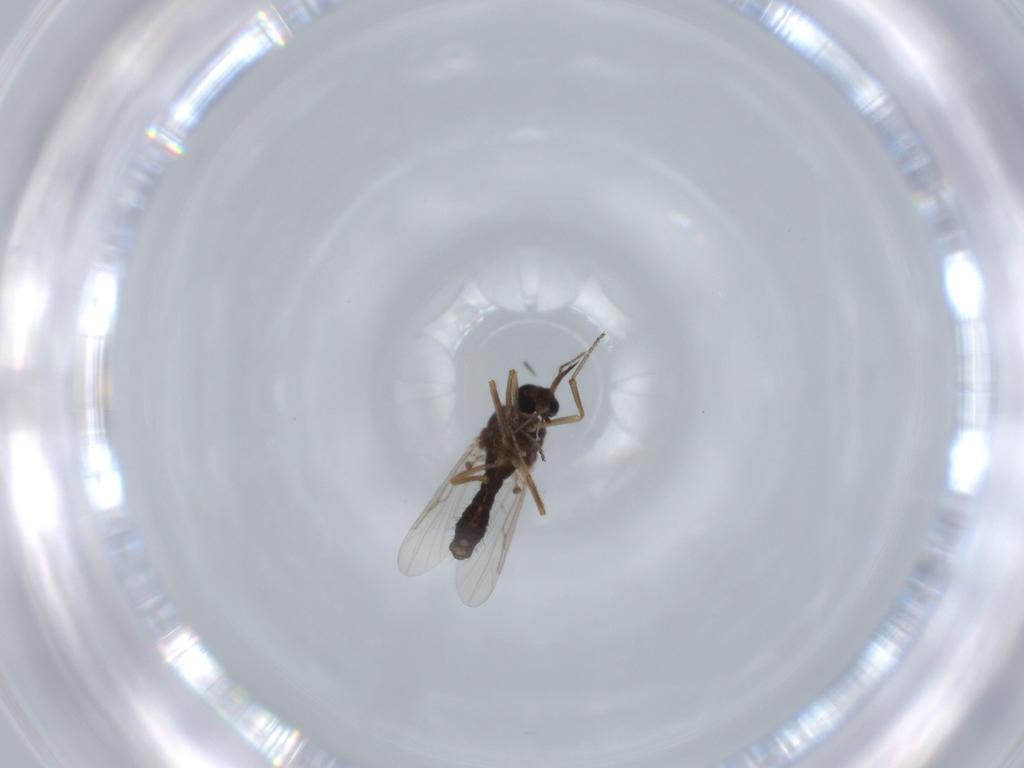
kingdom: Animalia
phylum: Arthropoda
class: Insecta
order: Diptera
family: Ceratopogonidae
